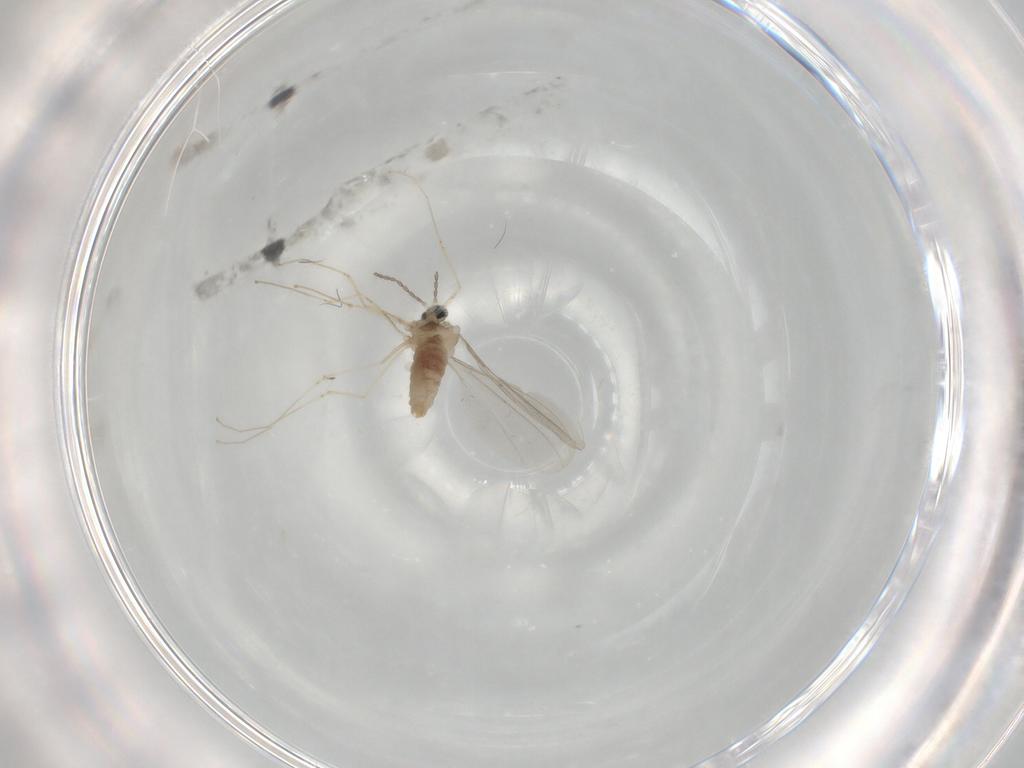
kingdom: Animalia
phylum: Arthropoda
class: Insecta
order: Diptera
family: Cecidomyiidae
